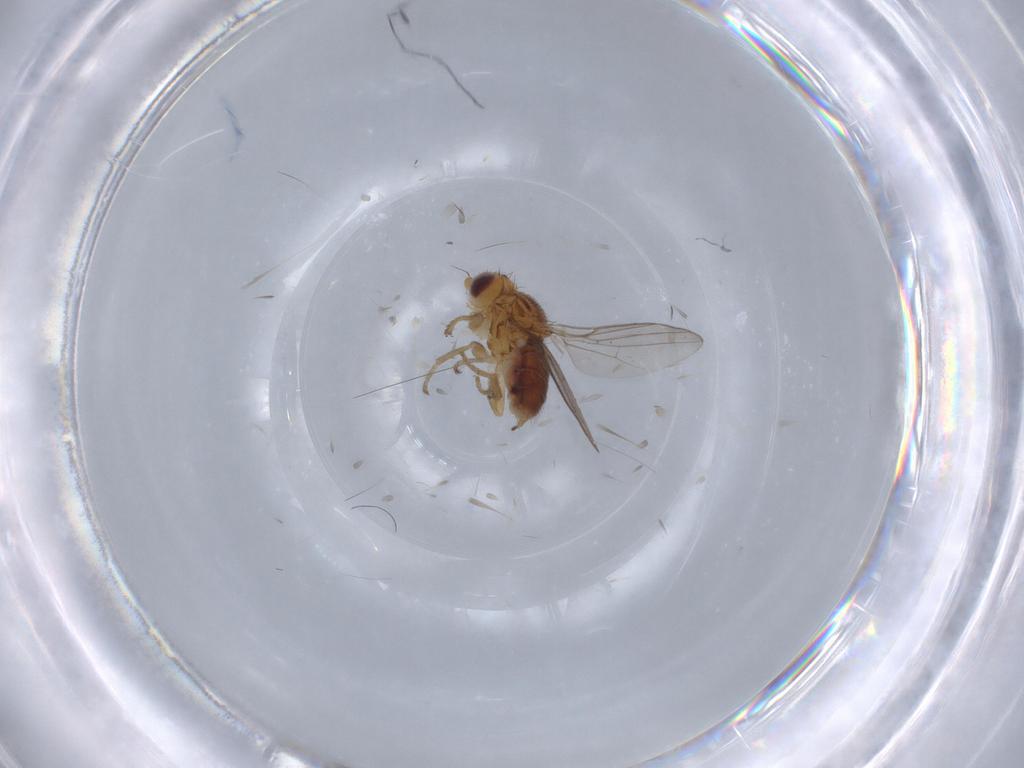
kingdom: Animalia
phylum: Arthropoda
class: Insecta
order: Diptera
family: Chloropidae
